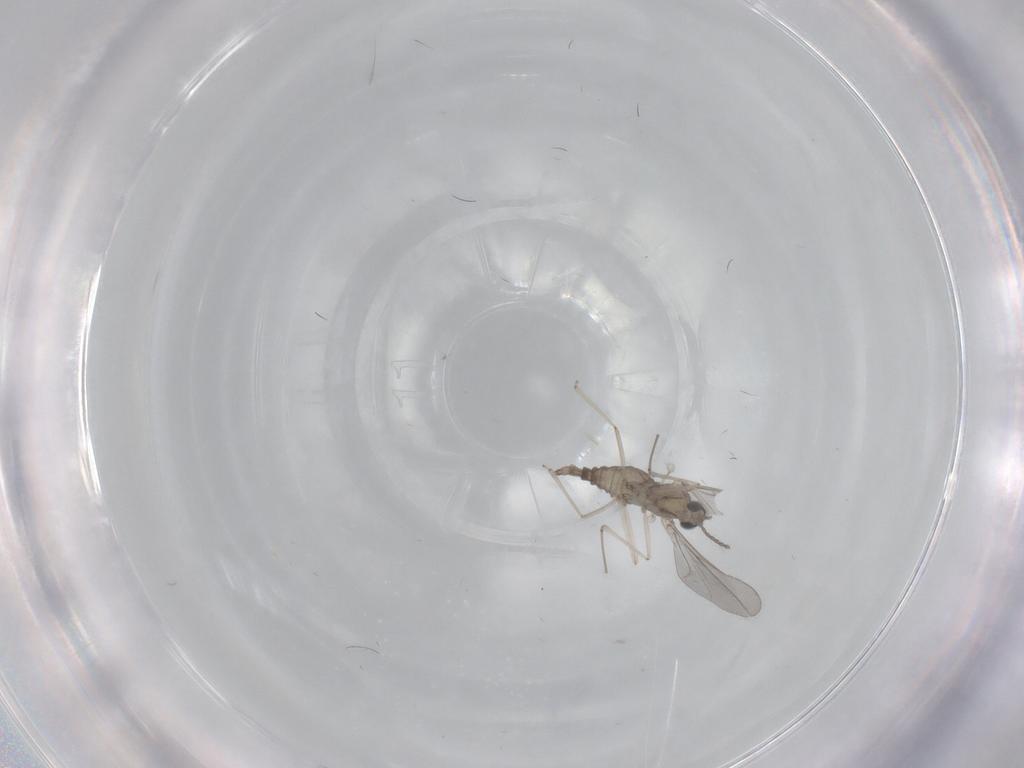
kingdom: Animalia
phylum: Arthropoda
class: Insecta
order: Diptera
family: Cecidomyiidae
